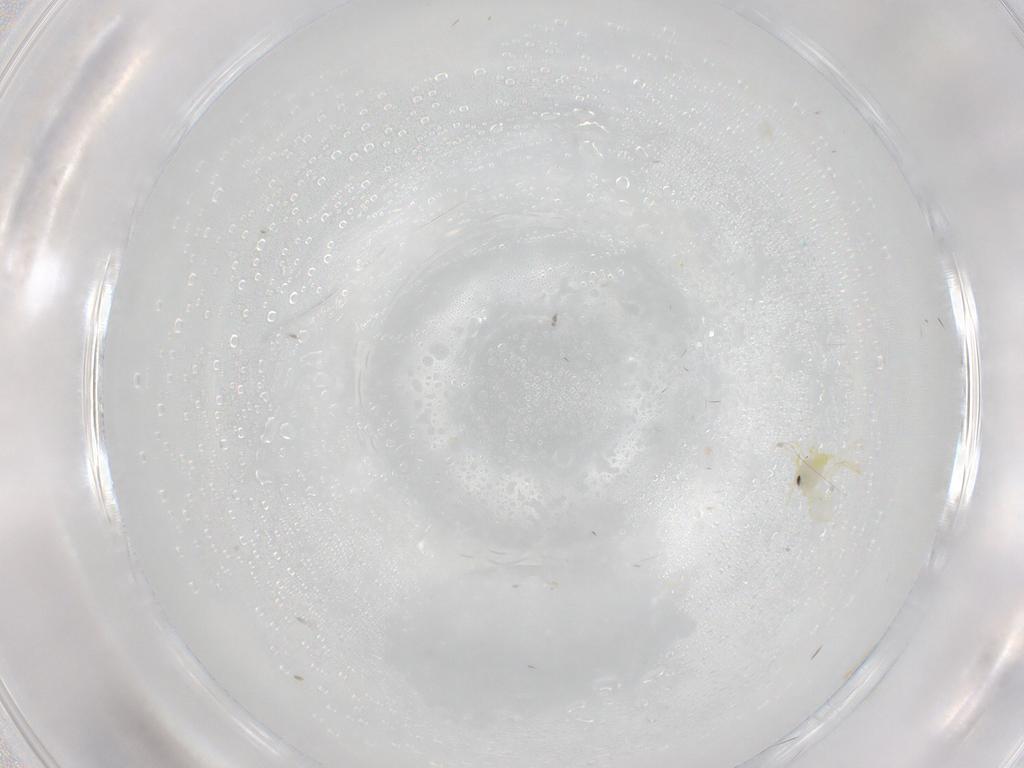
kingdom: Animalia
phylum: Arthropoda
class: Insecta
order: Hemiptera
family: Aleyrodidae
